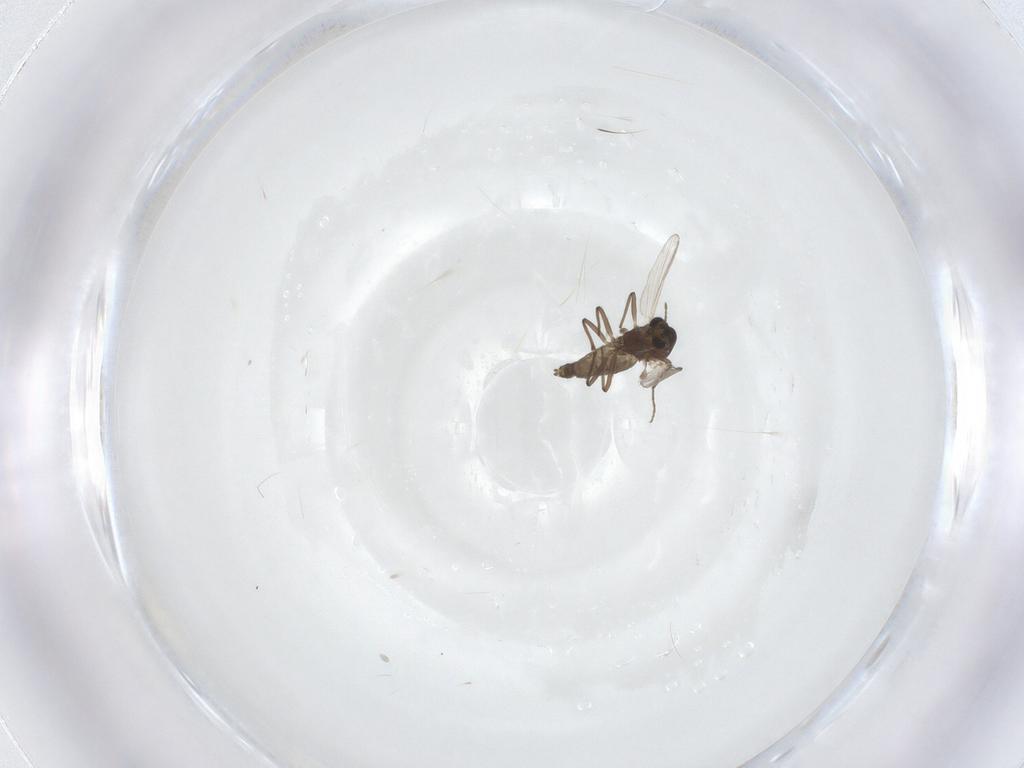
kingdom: Animalia
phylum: Arthropoda
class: Insecta
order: Diptera
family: Chironomidae
